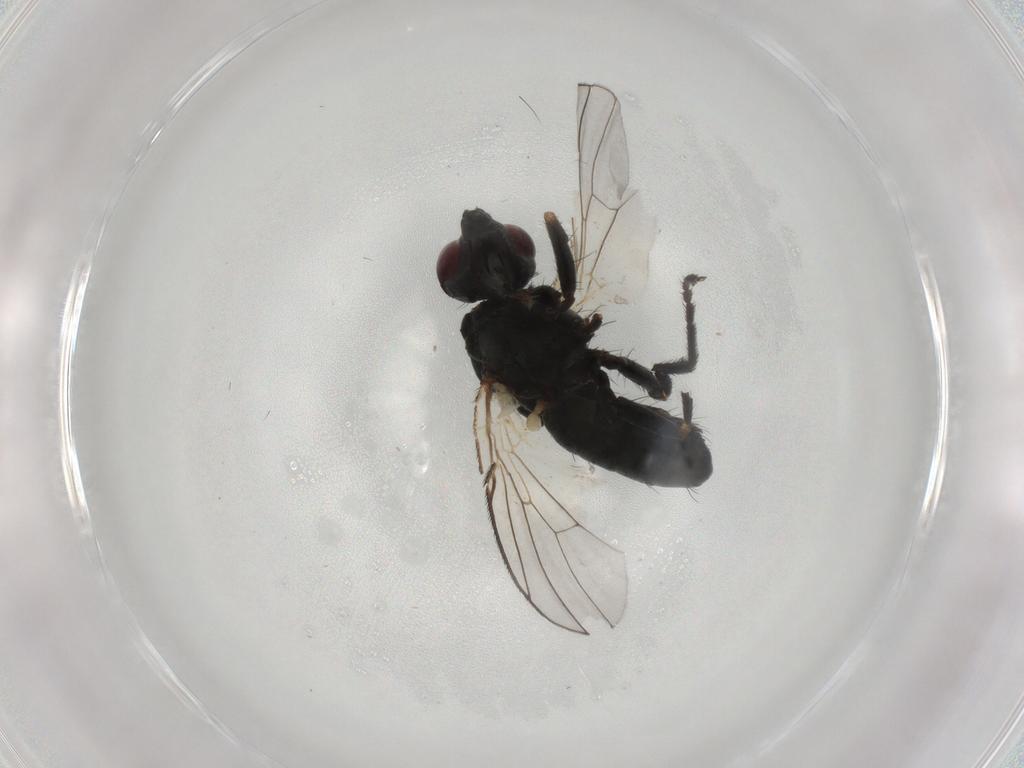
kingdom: Animalia
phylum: Arthropoda
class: Insecta
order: Diptera
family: Muscidae
